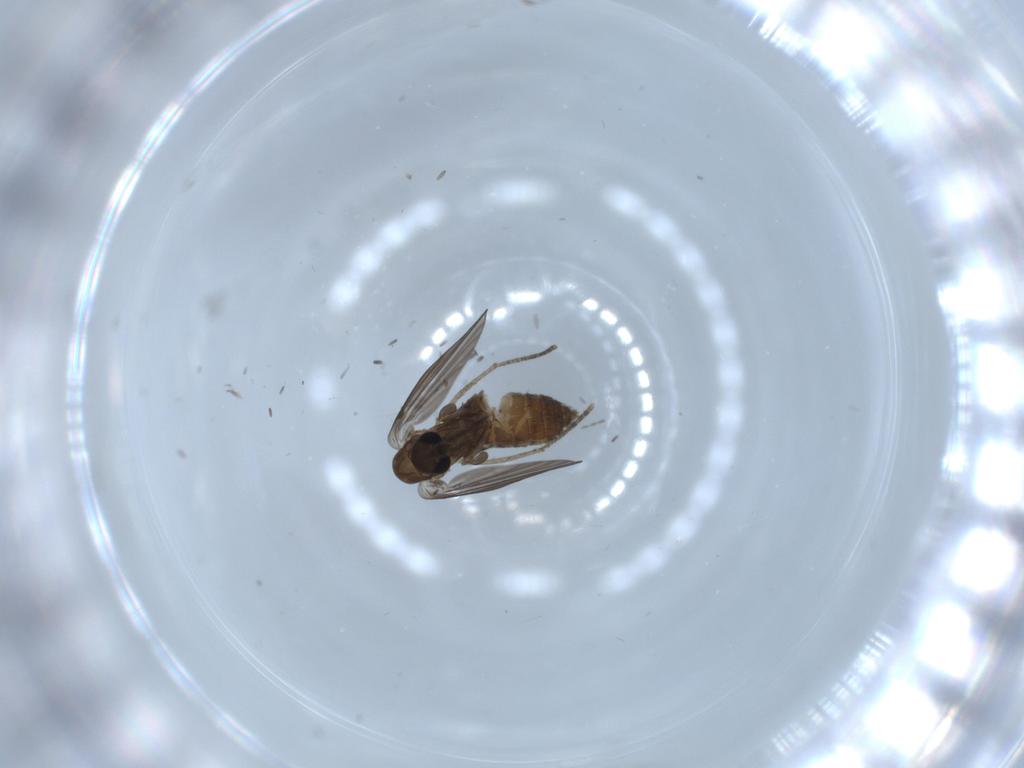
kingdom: Animalia
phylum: Arthropoda
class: Insecta
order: Diptera
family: Psychodidae
